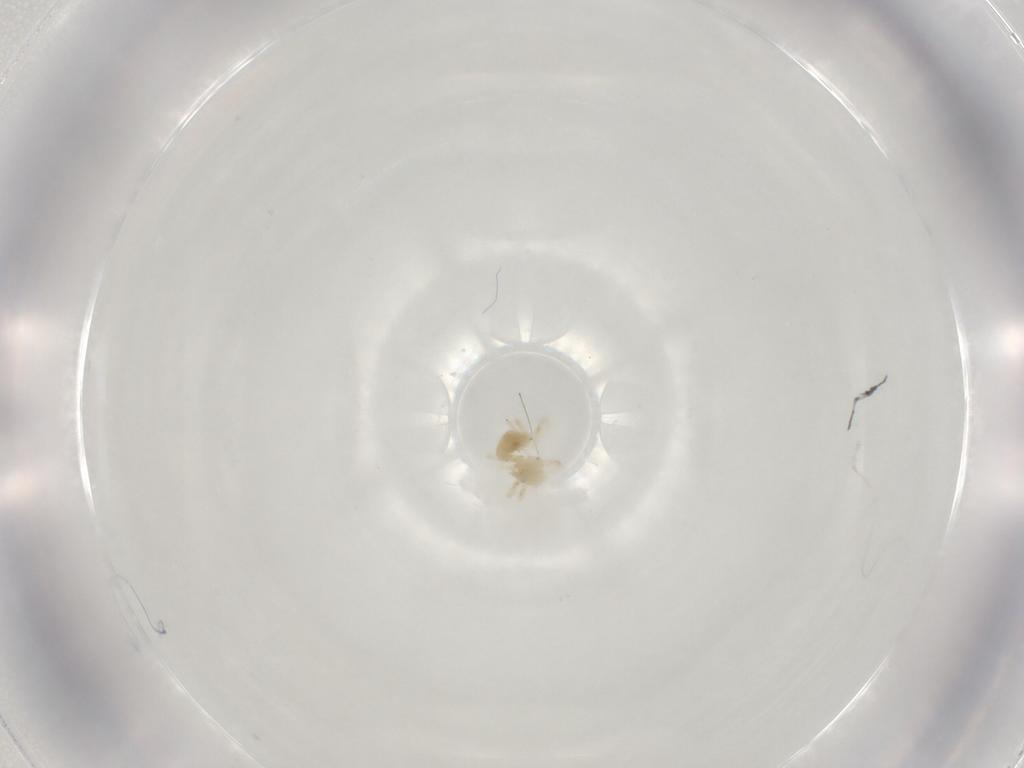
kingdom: Animalia
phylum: Arthropoda
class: Arachnida
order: Trombidiformes
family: Anystidae
